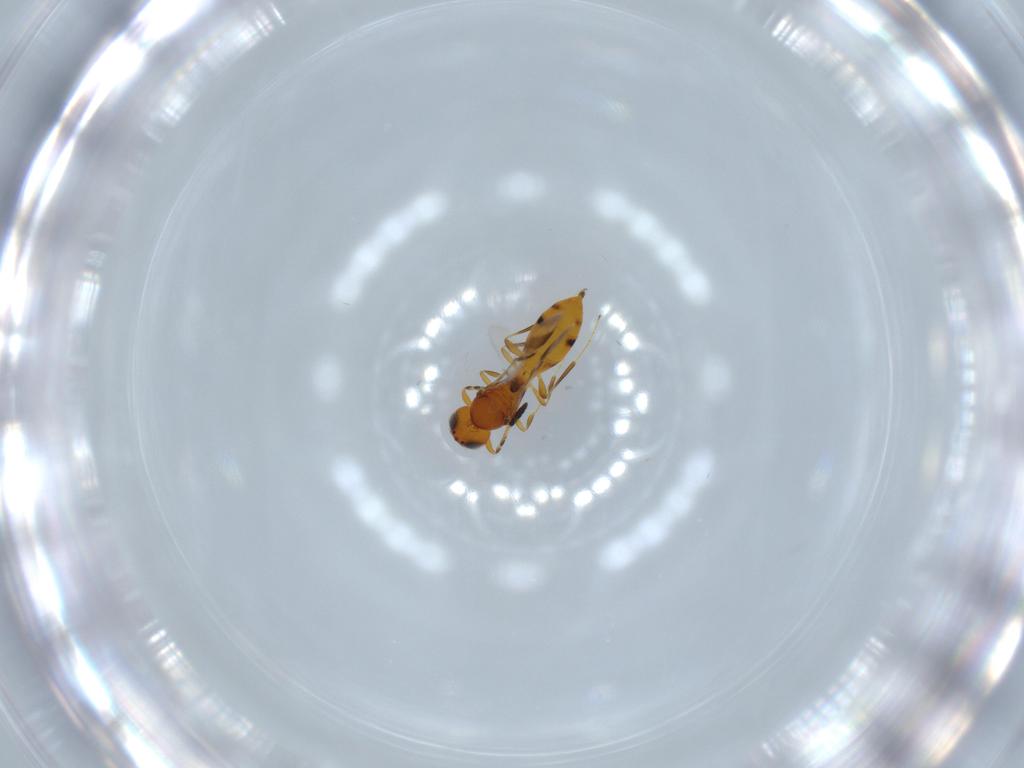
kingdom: Animalia
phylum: Arthropoda
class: Insecta
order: Hymenoptera
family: Scelionidae
